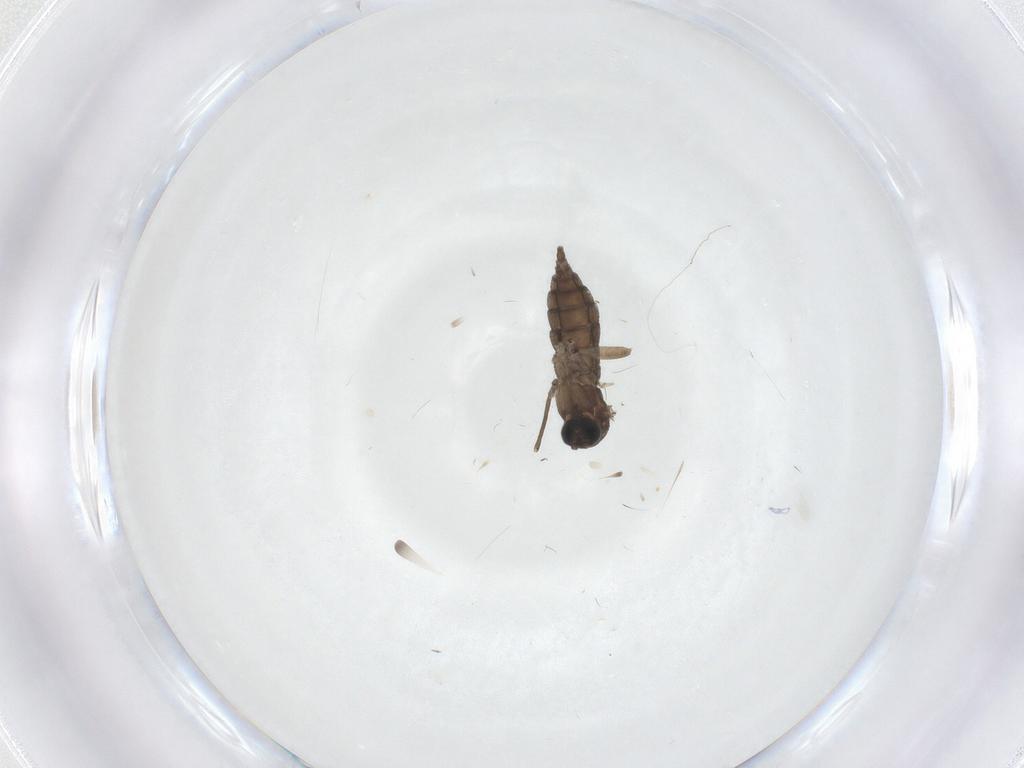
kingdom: Animalia
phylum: Arthropoda
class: Insecta
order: Diptera
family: Sciaridae
